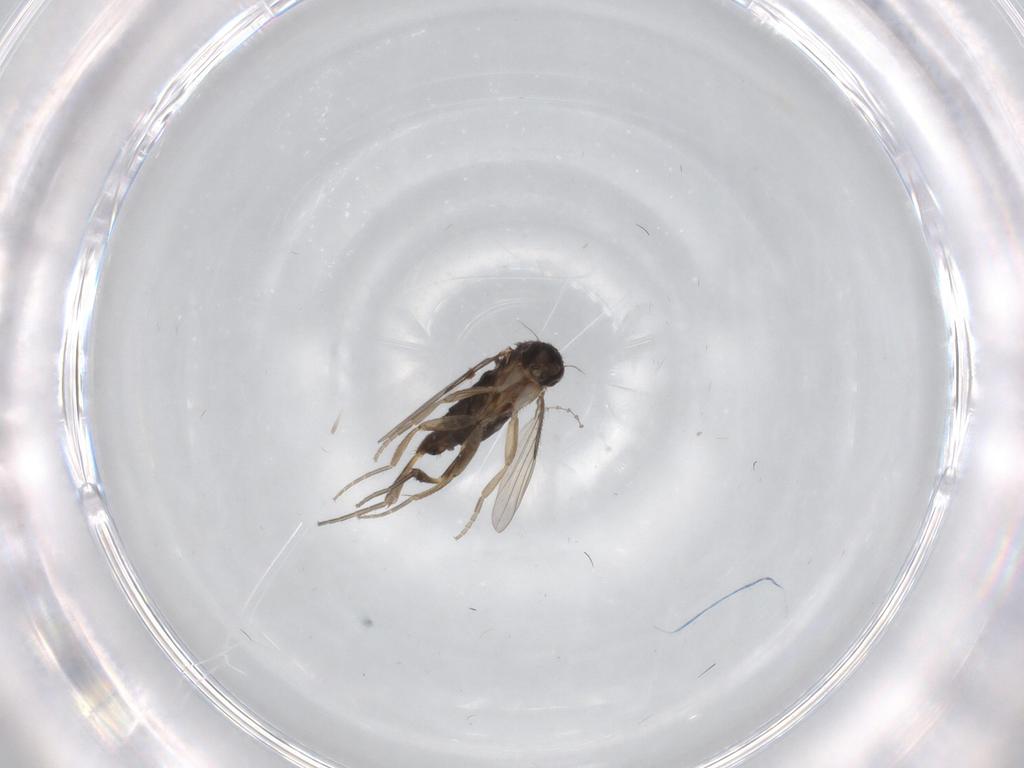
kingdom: Animalia
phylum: Arthropoda
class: Insecta
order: Diptera
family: Phoridae
